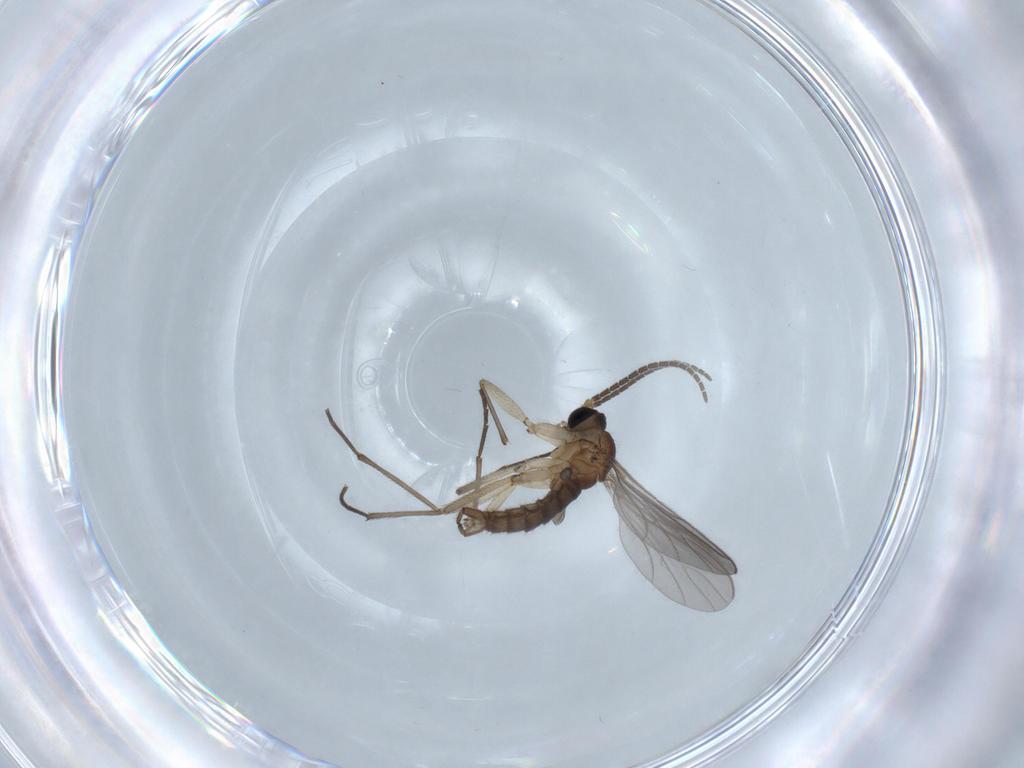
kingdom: Animalia
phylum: Arthropoda
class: Insecta
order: Diptera
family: Sciaridae
